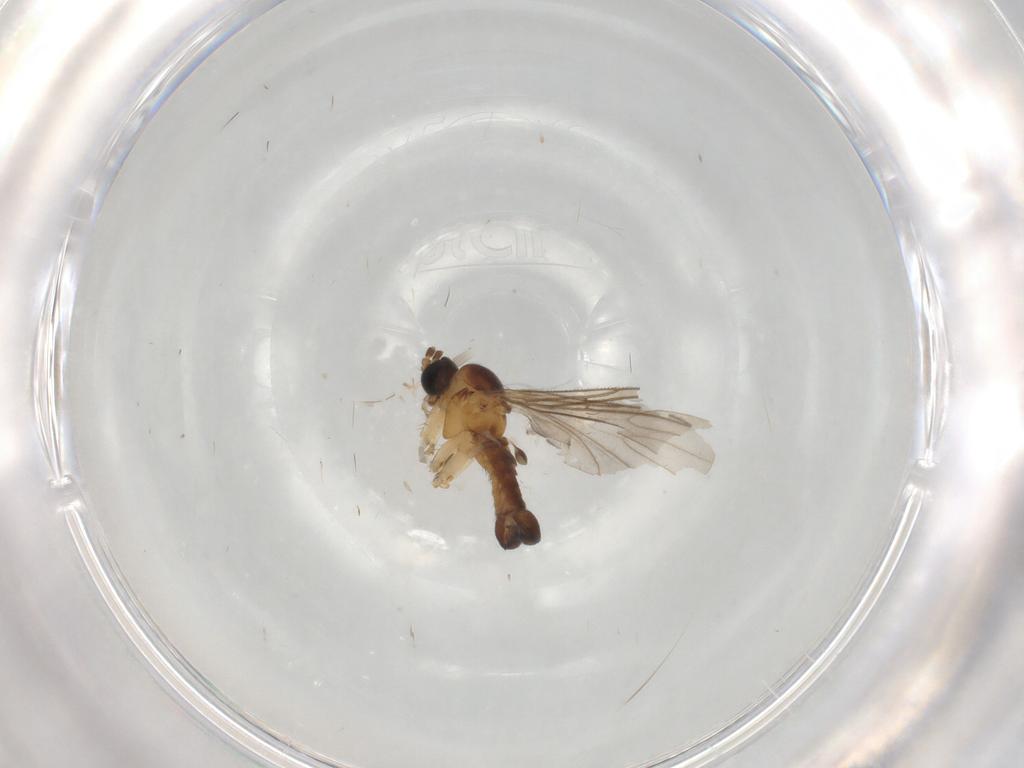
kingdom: Animalia
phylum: Arthropoda
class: Insecta
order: Diptera
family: Sciaridae
